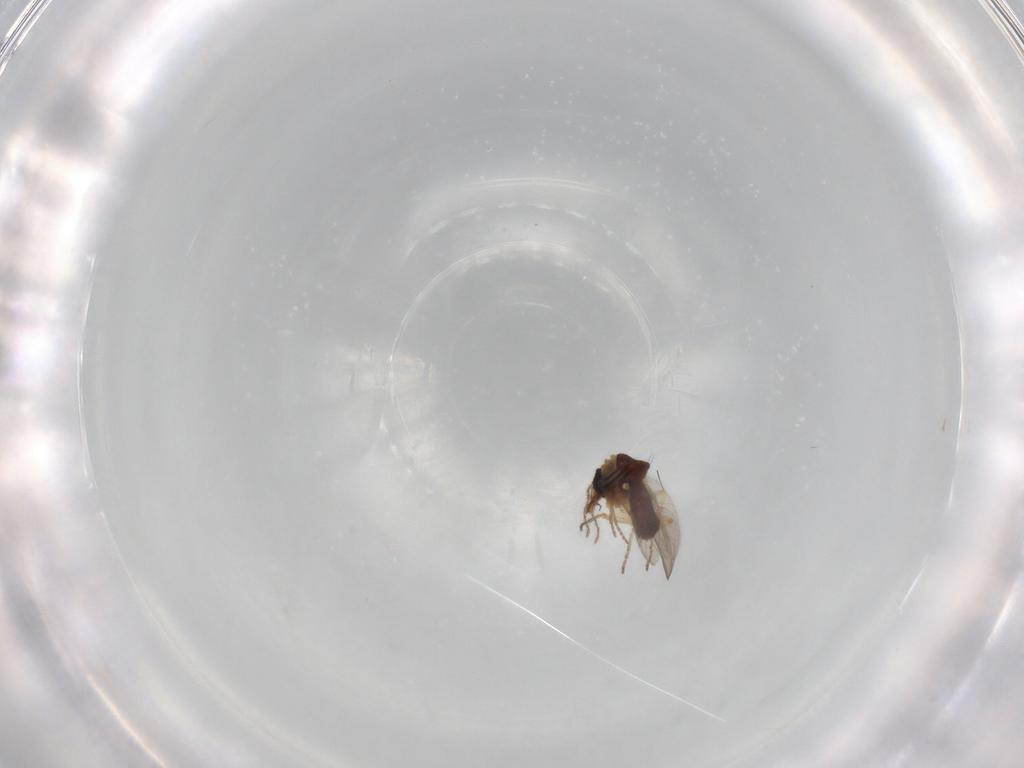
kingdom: Animalia
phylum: Arthropoda
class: Insecta
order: Diptera
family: Ceratopogonidae
